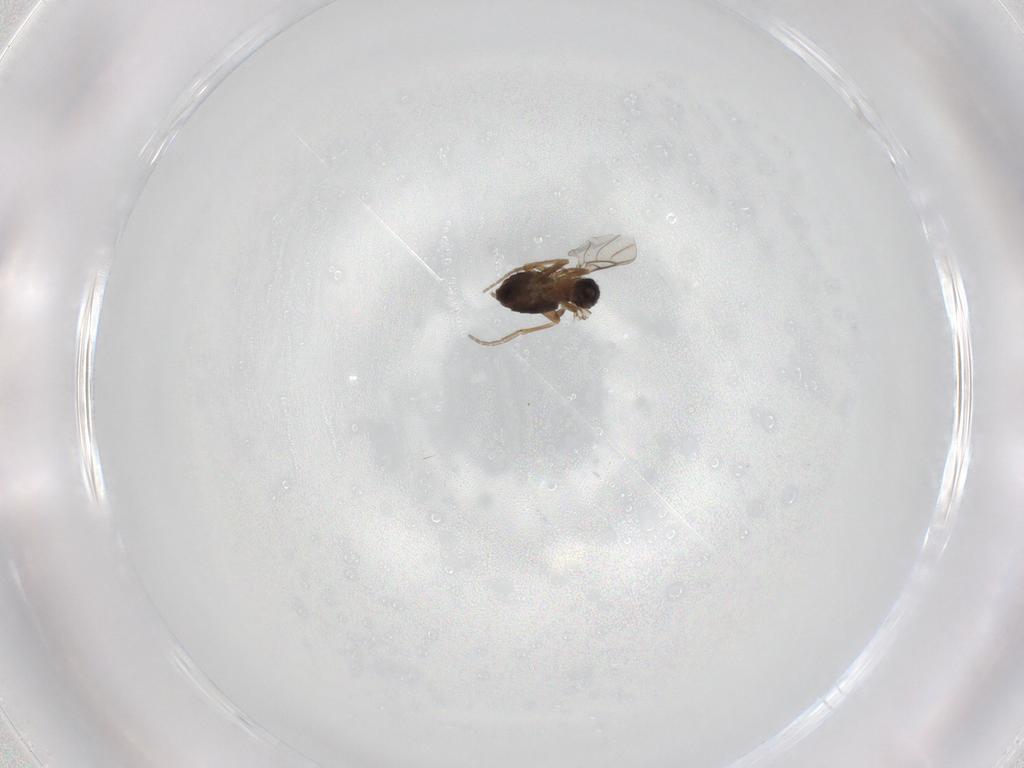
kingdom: Animalia
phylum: Arthropoda
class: Insecta
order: Diptera
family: Phoridae
